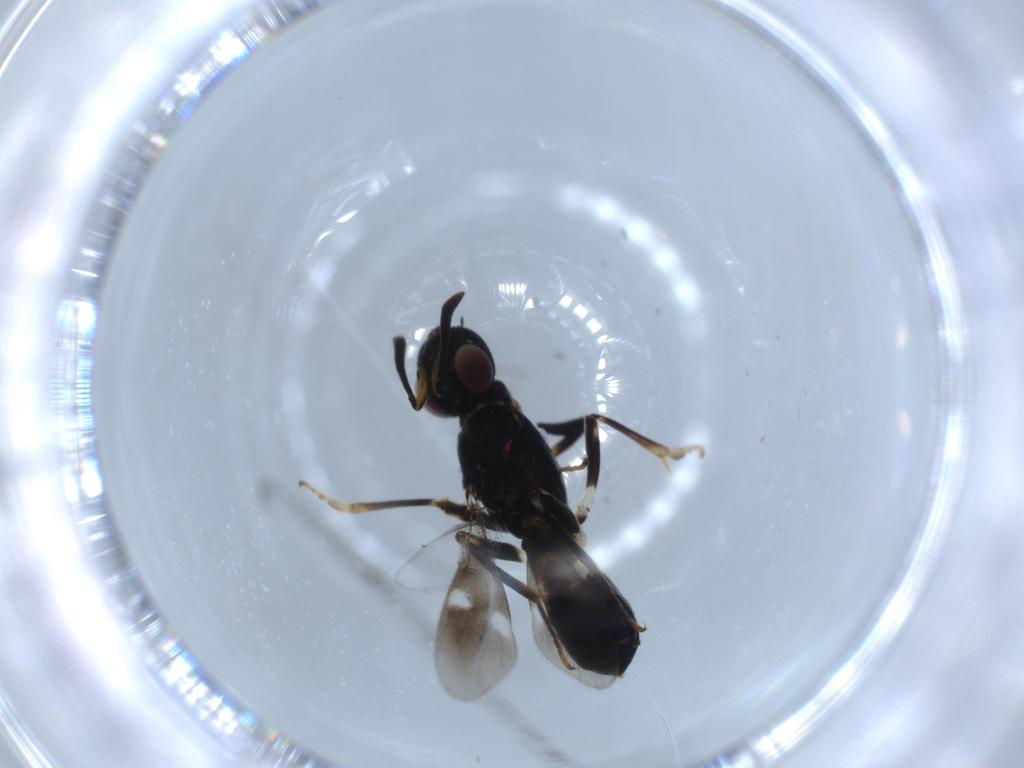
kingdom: Animalia
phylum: Arthropoda
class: Insecta
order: Hymenoptera
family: Eupelmidae
